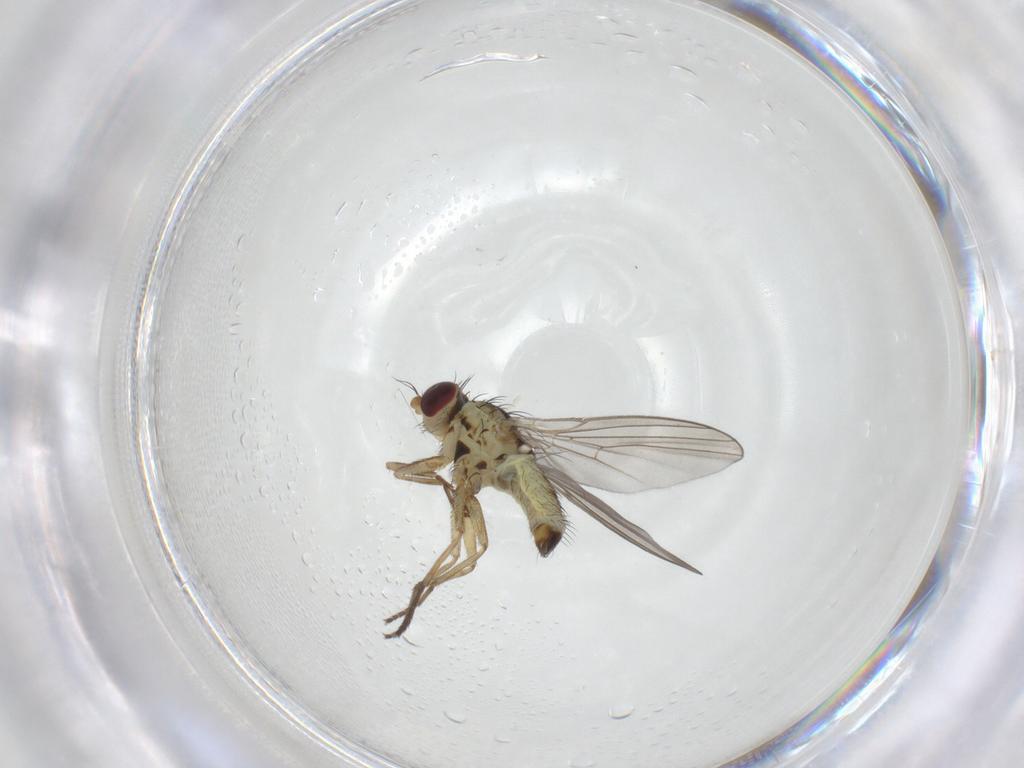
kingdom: Animalia
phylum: Arthropoda
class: Insecta
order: Diptera
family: Agromyzidae
